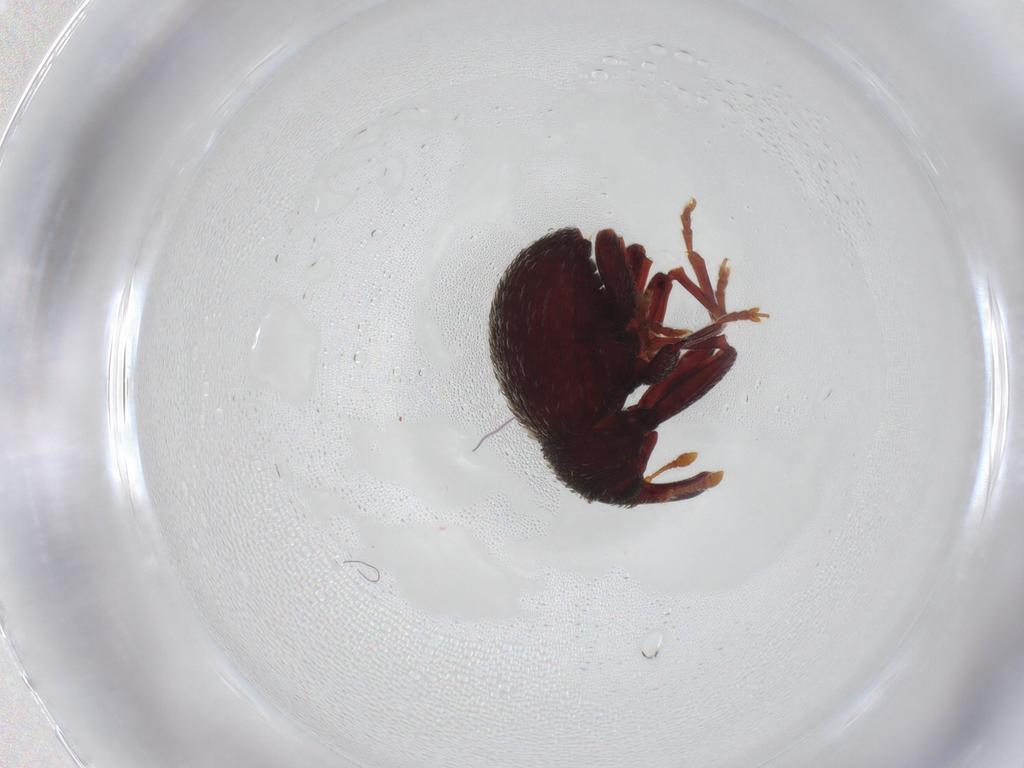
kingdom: Animalia
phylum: Arthropoda
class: Insecta
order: Coleoptera
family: Curculionidae
